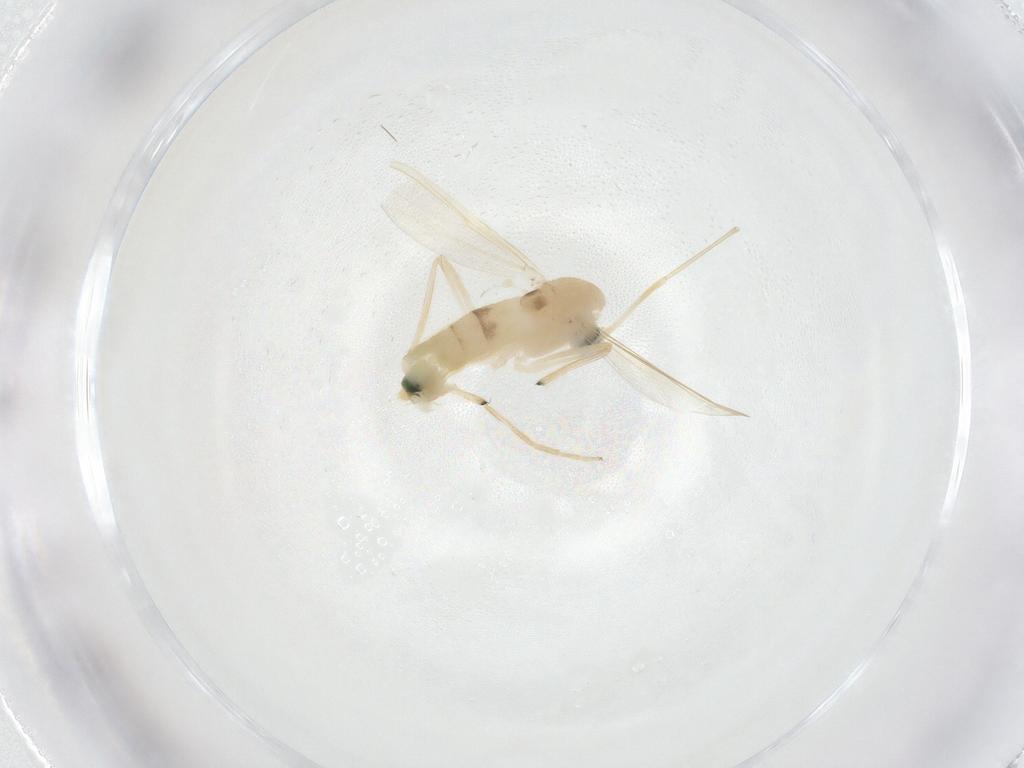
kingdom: Animalia
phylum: Arthropoda
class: Insecta
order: Diptera
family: Chironomidae
